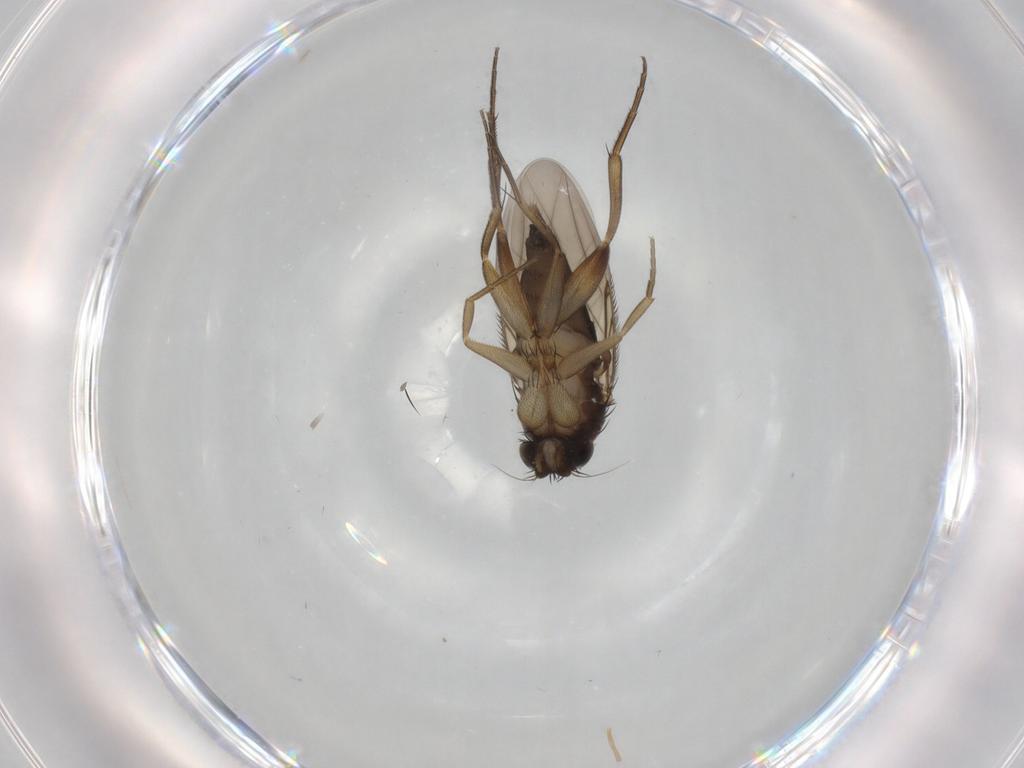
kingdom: Animalia
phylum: Arthropoda
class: Insecta
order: Diptera
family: Phoridae
